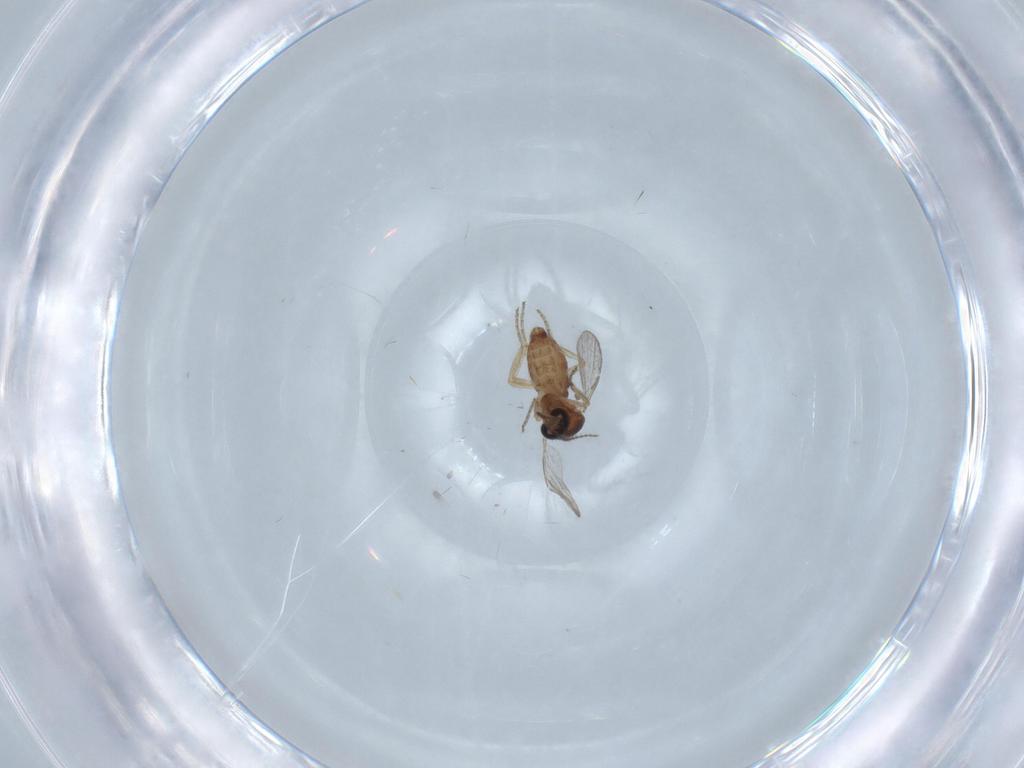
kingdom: Animalia
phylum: Arthropoda
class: Insecta
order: Diptera
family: Ceratopogonidae
